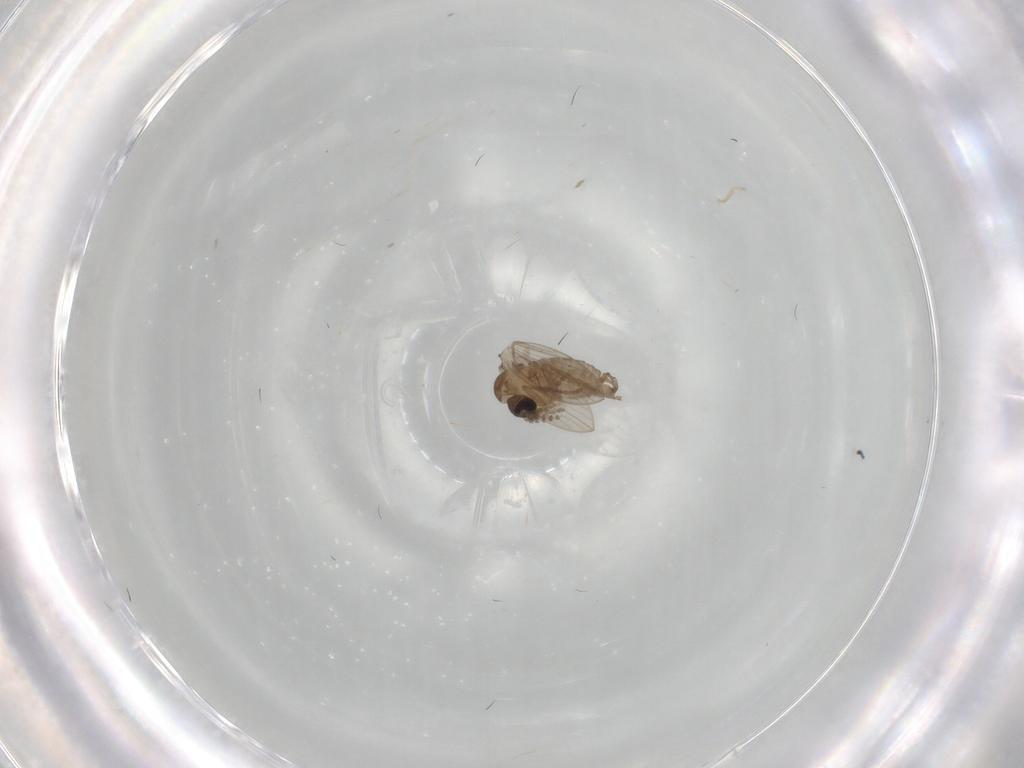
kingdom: Animalia
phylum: Arthropoda
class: Insecta
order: Diptera
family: Psychodidae
